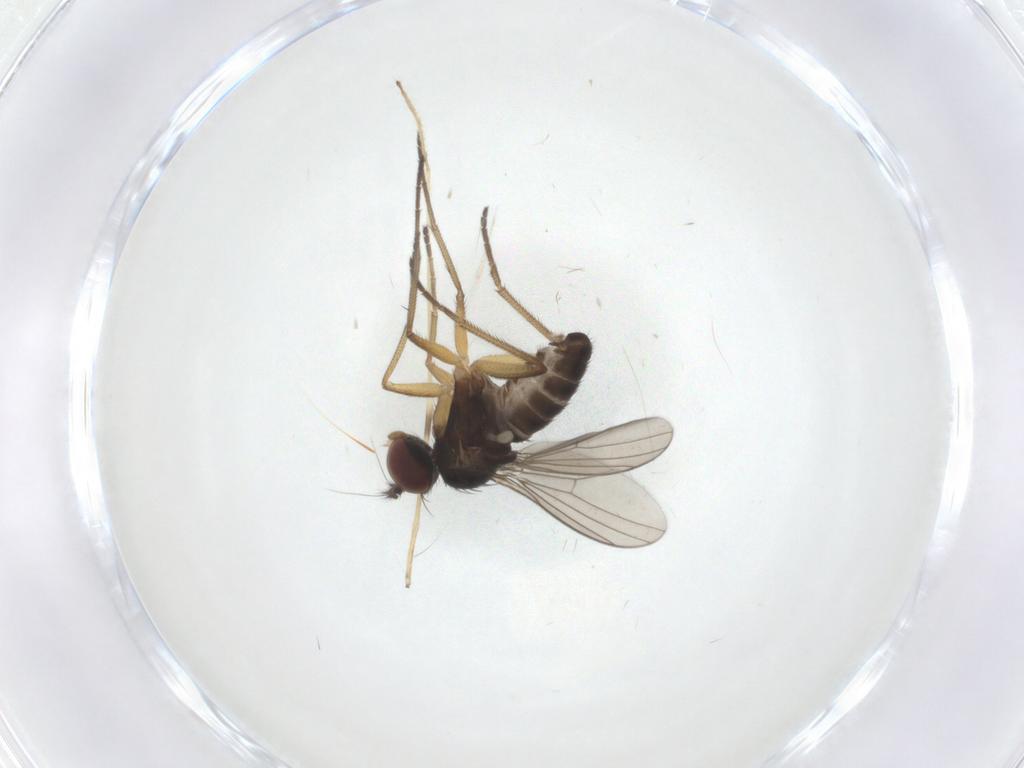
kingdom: Animalia
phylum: Arthropoda
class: Insecta
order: Diptera
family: Dolichopodidae
